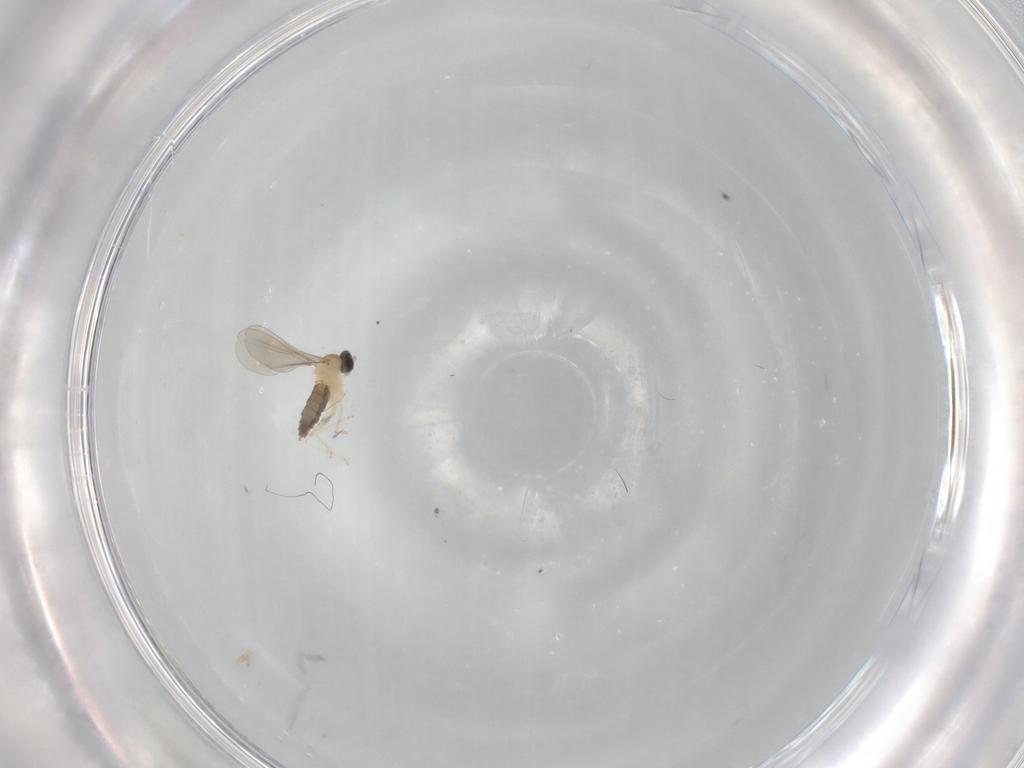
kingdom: Animalia
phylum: Arthropoda
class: Insecta
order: Diptera
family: Cecidomyiidae
